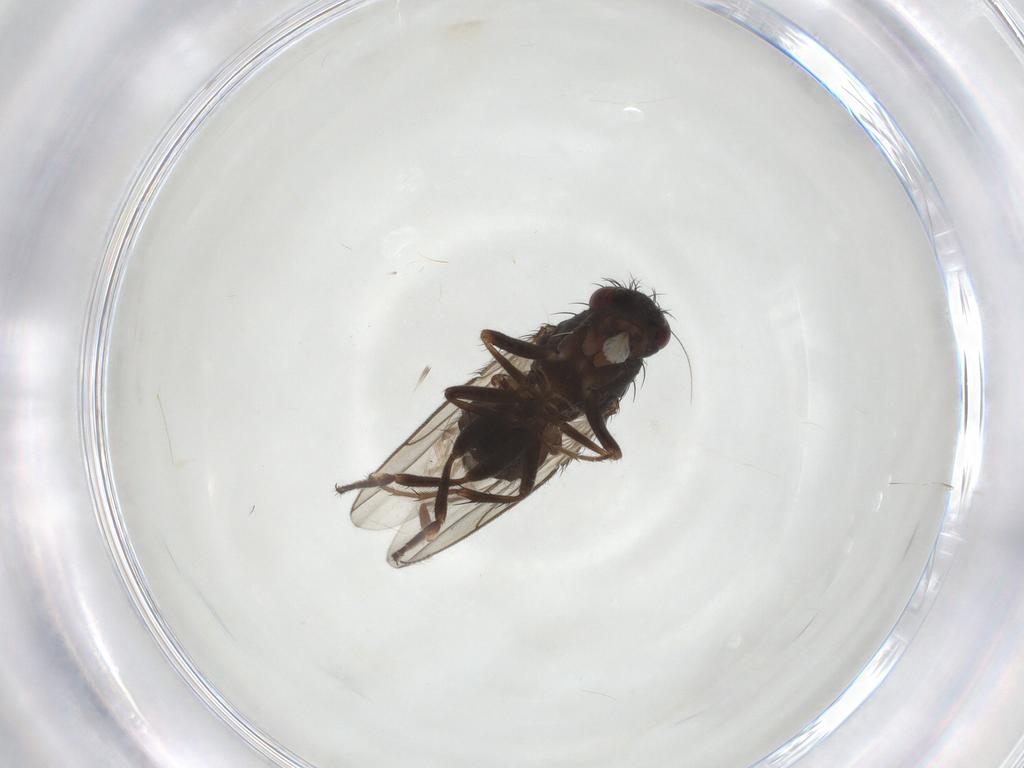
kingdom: Animalia
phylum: Arthropoda
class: Insecta
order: Diptera
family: Sphaeroceridae
